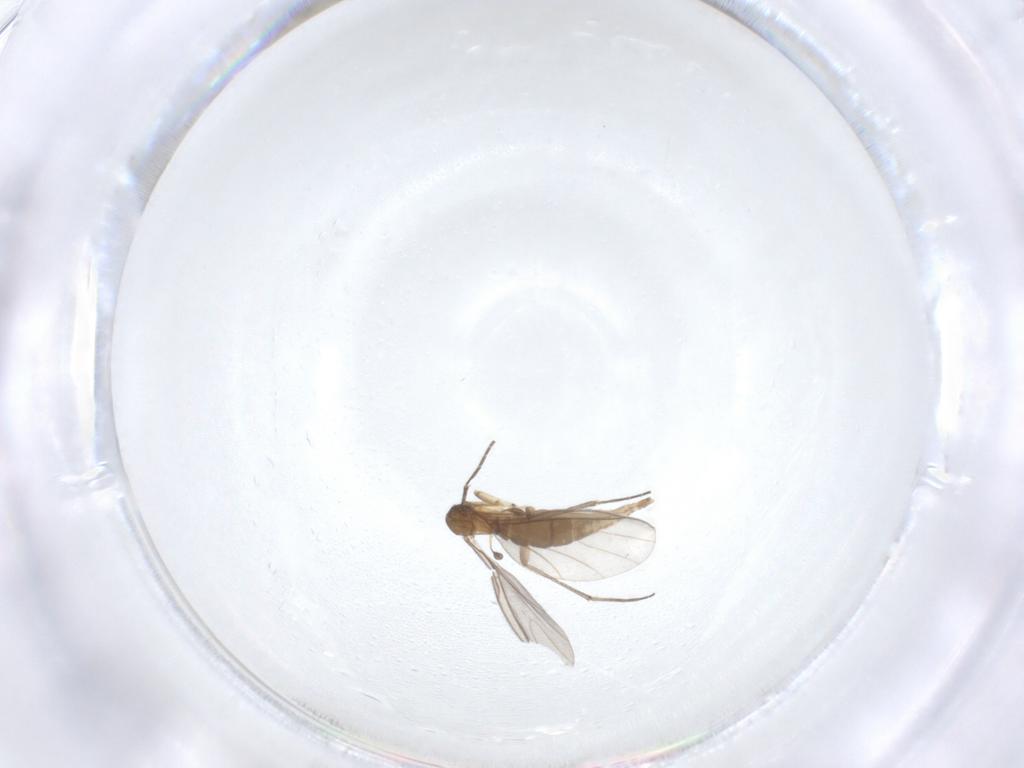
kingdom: Animalia
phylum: Arthropoda
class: Insecta
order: Diptera
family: Sciaridae
